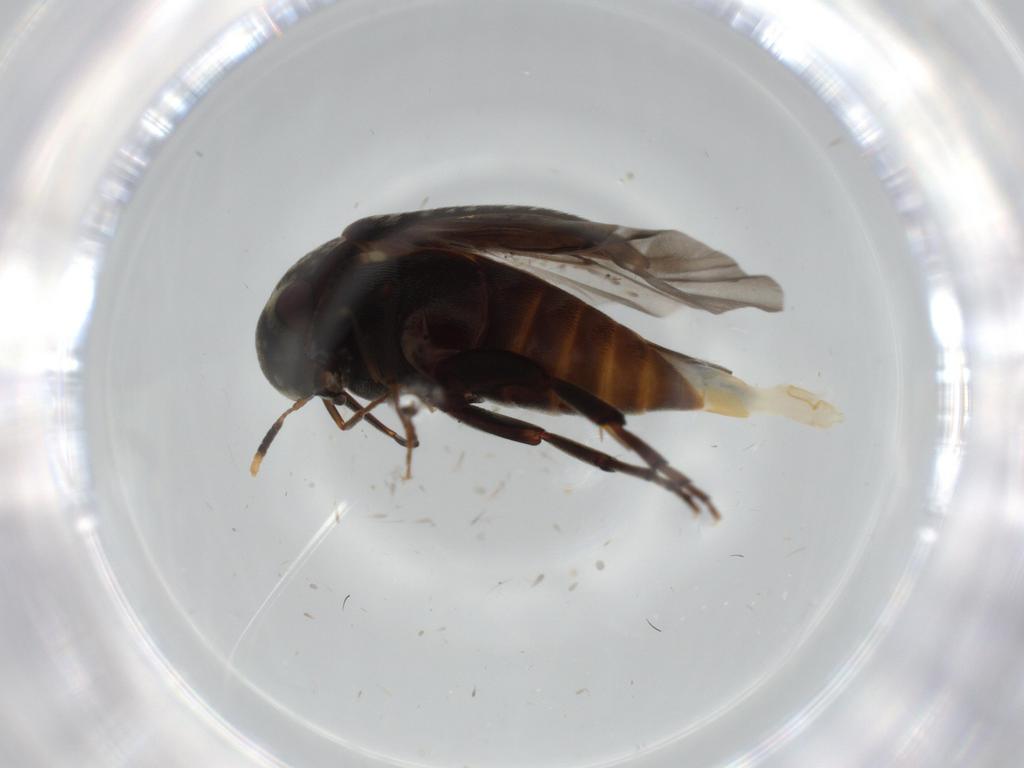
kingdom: Animalia
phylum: Arthropoda
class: Insecta
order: Coleoptera
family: Mordellidae
